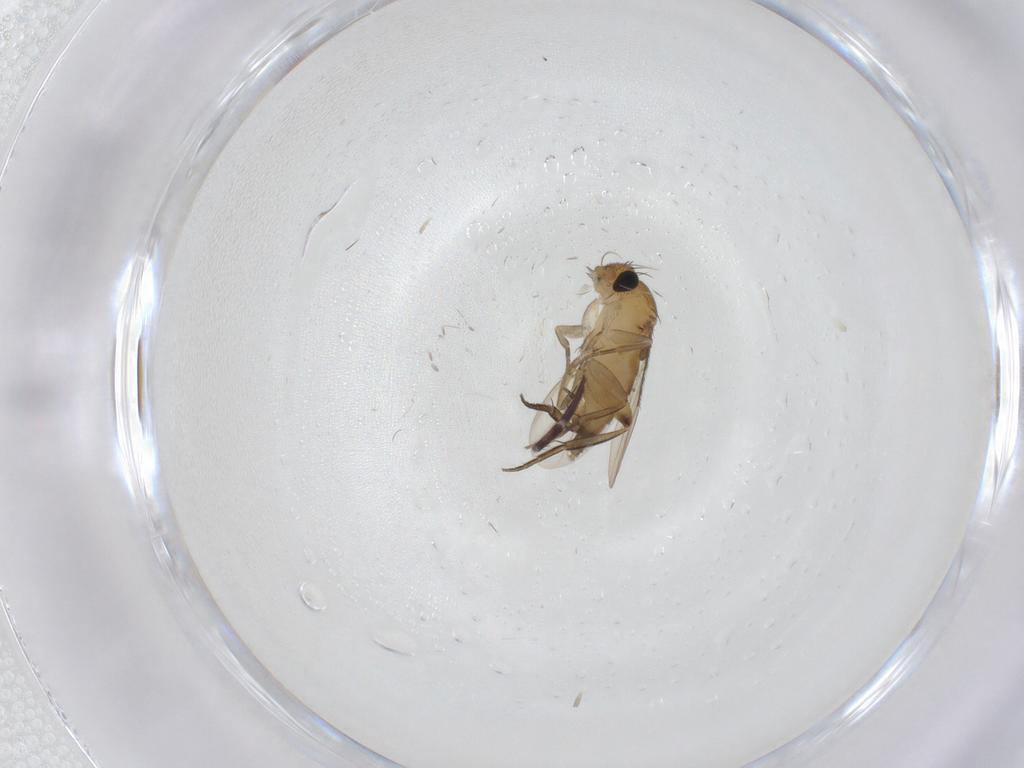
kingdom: Animalia
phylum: Arthropoda
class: Insecta
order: Diptera
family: Phoridae
